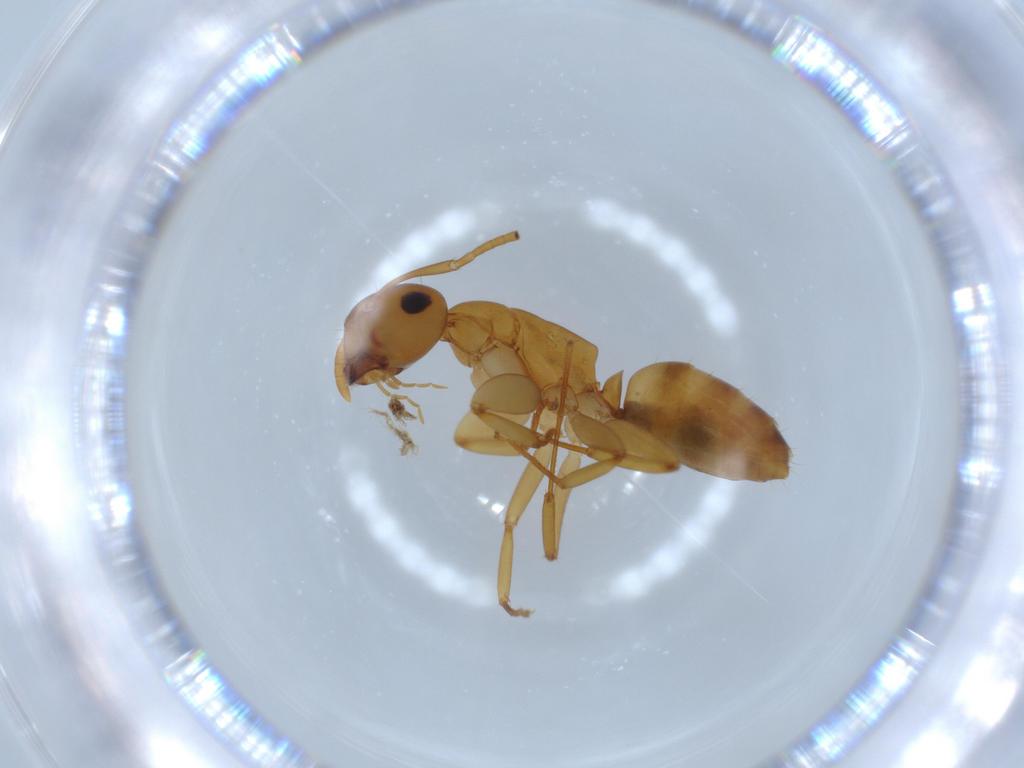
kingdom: Animalia
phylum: Arthropoda
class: Insecta
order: Hymenoptera
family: Formicidae
